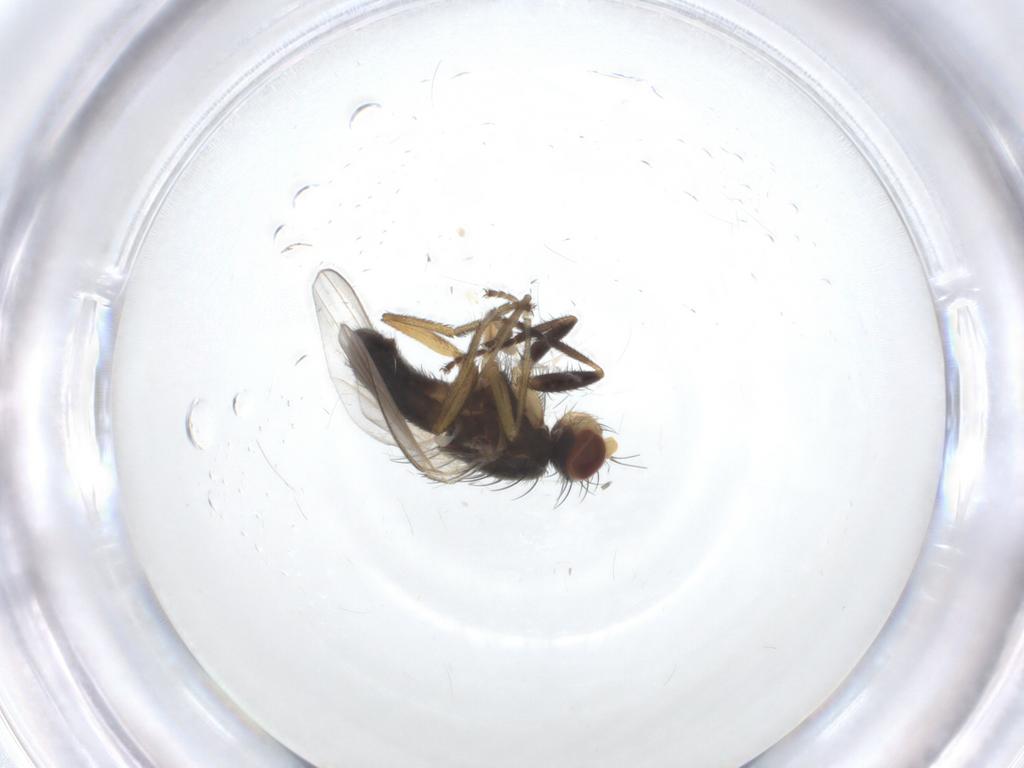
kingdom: Animalia
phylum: Arthropoda
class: Insecta
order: Diptera
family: Heleomyzidae
